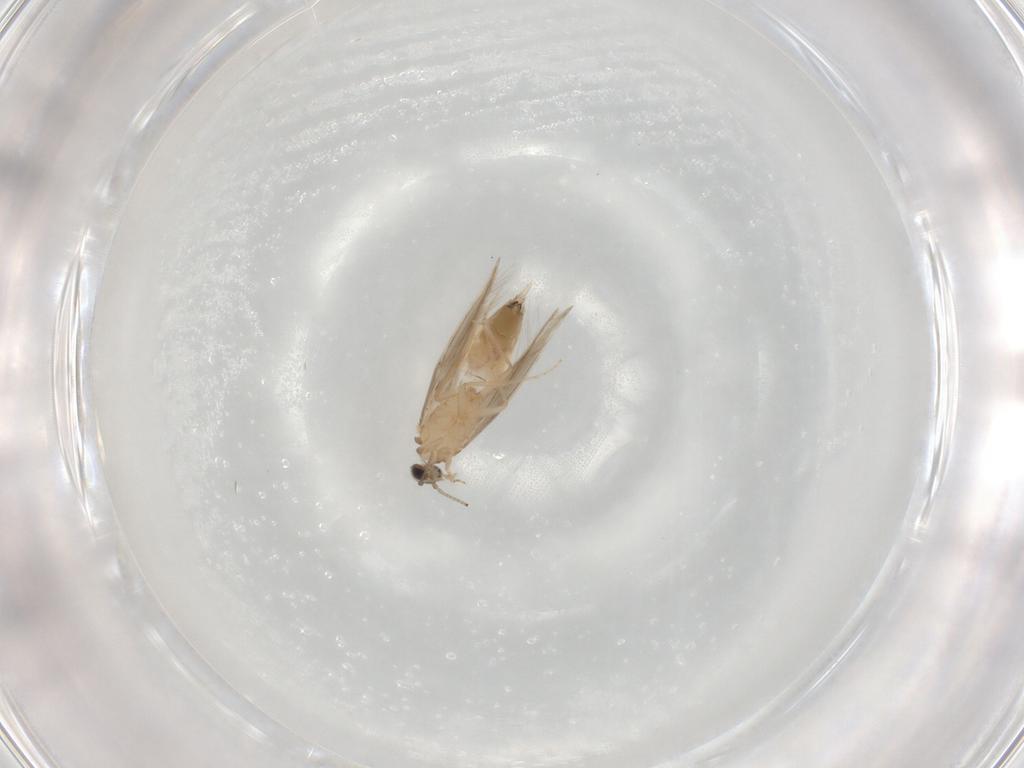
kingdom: Animalia
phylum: Arthropoda
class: Insecta
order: Trichoptera
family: Hydroptilidae
